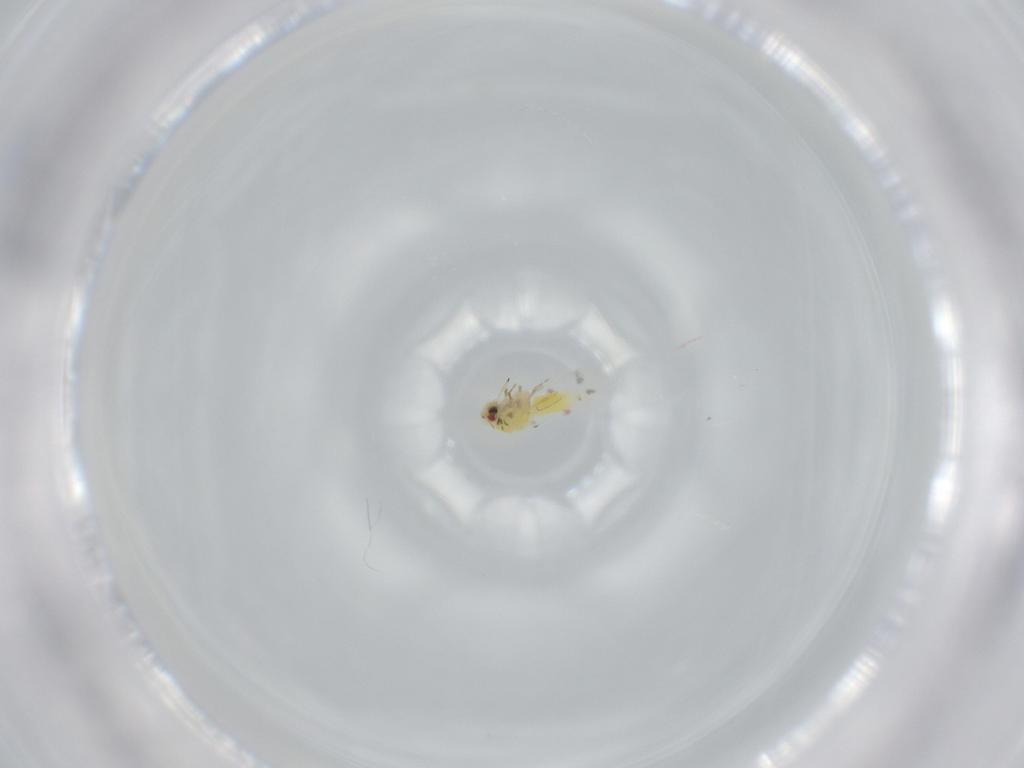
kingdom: Animalia
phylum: Arthropoda
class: Insecta
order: Hemiptera
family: Aleyrodidae
